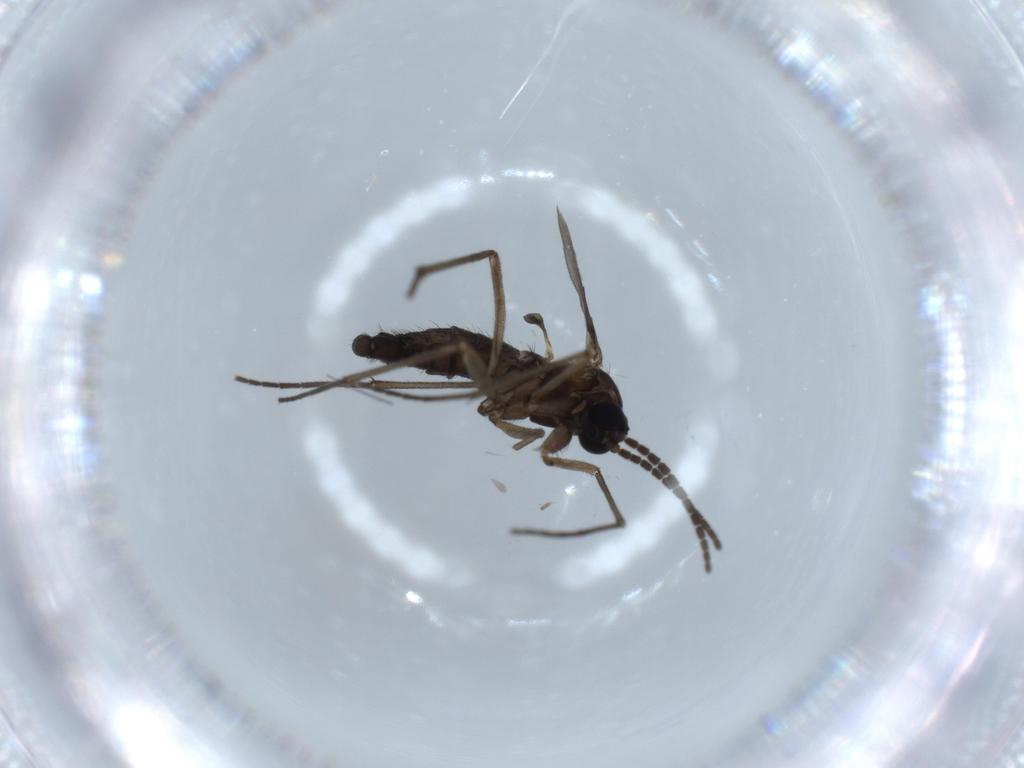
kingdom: Animalia
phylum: Arthropoda
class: Insecta
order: Diptera
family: Sciaridae
